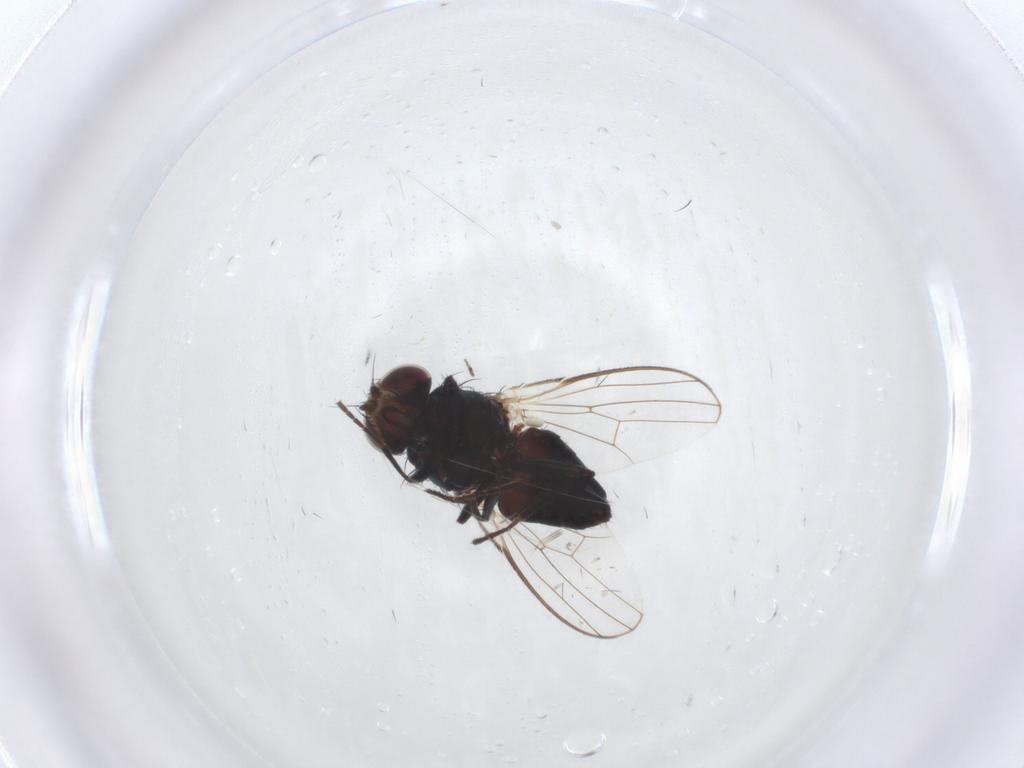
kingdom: Animalia
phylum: Arthropoda
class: Insecta
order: Diptera
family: Carnidae
